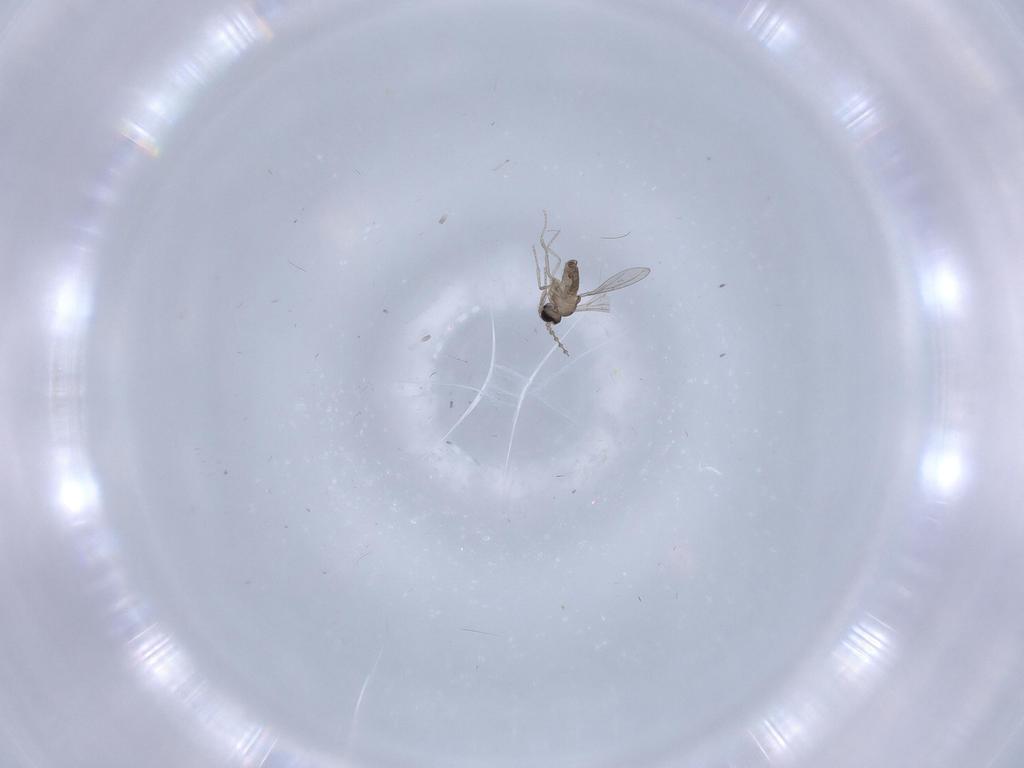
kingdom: Animalia
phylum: Arthropoda
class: Insecta
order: Diptera
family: Cecidomyiidae
